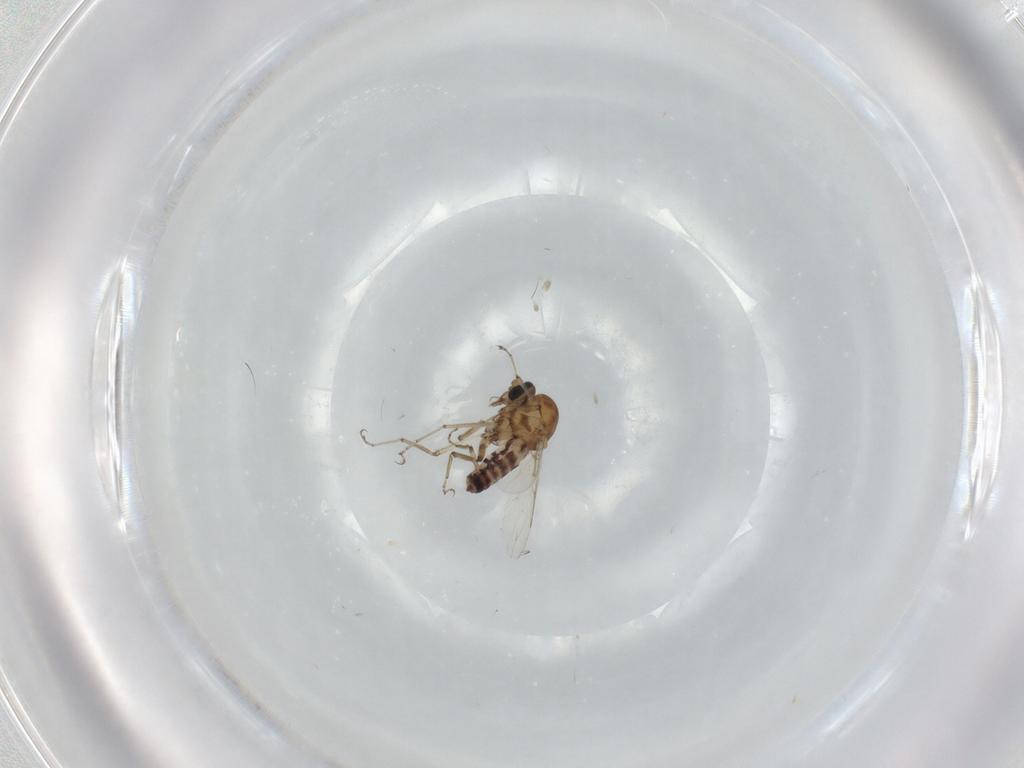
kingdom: Animalia
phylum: Arthropoda
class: Insecta
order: Diptera
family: Ceratopogonidae
